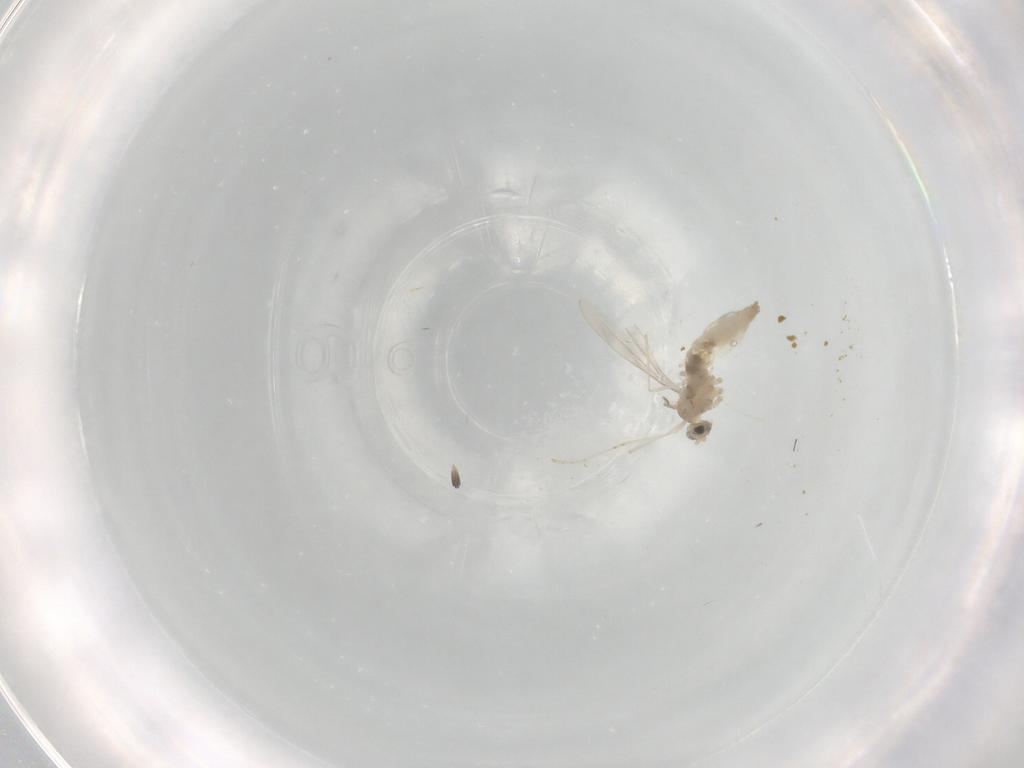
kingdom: Animalia
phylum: Arthropoda
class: Insecta
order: Diptera
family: Cecidomyiidae
